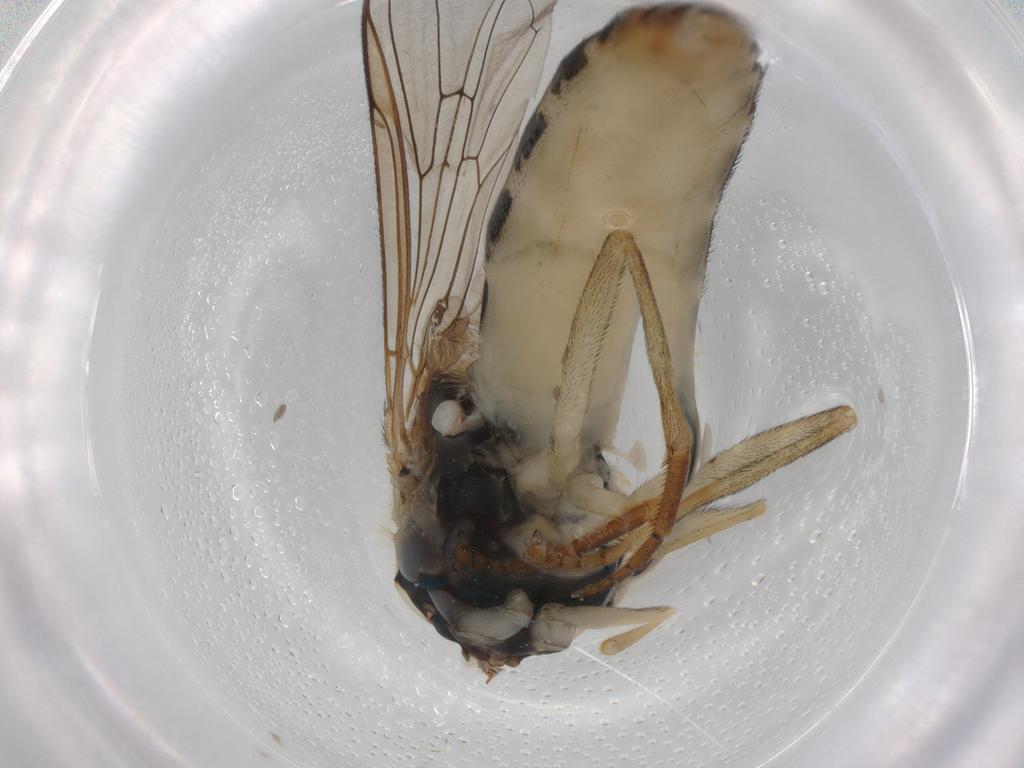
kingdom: Animalia
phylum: Arthropoda
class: Insecta
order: Diptera
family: Syrphidae
